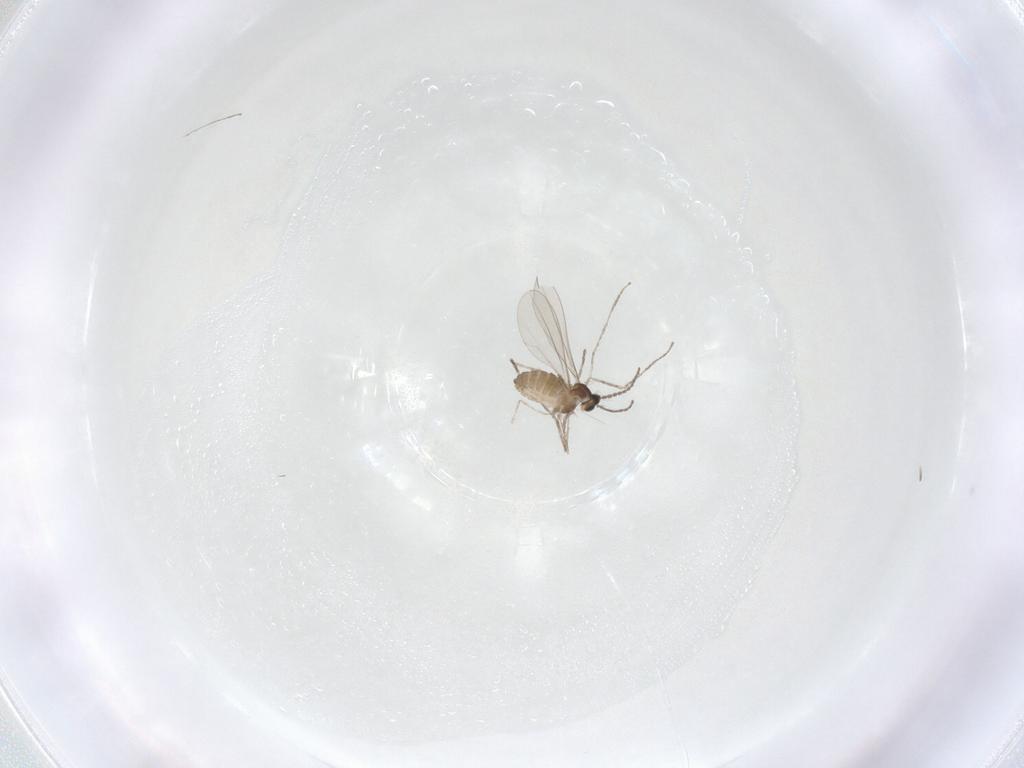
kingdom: Animalia
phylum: Arthropoda
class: Insecta
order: Diptera
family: Cecidomyiidae
